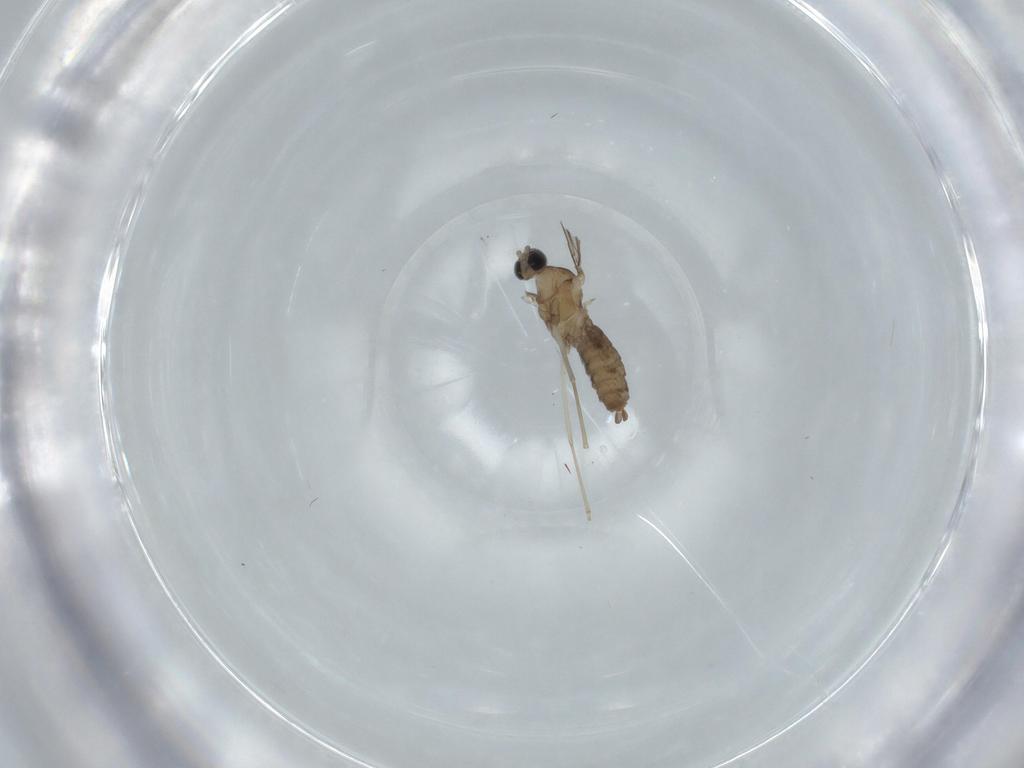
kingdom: Animalia
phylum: Arthropoda
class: Insecta
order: Diptera
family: Cecidomyiidae
